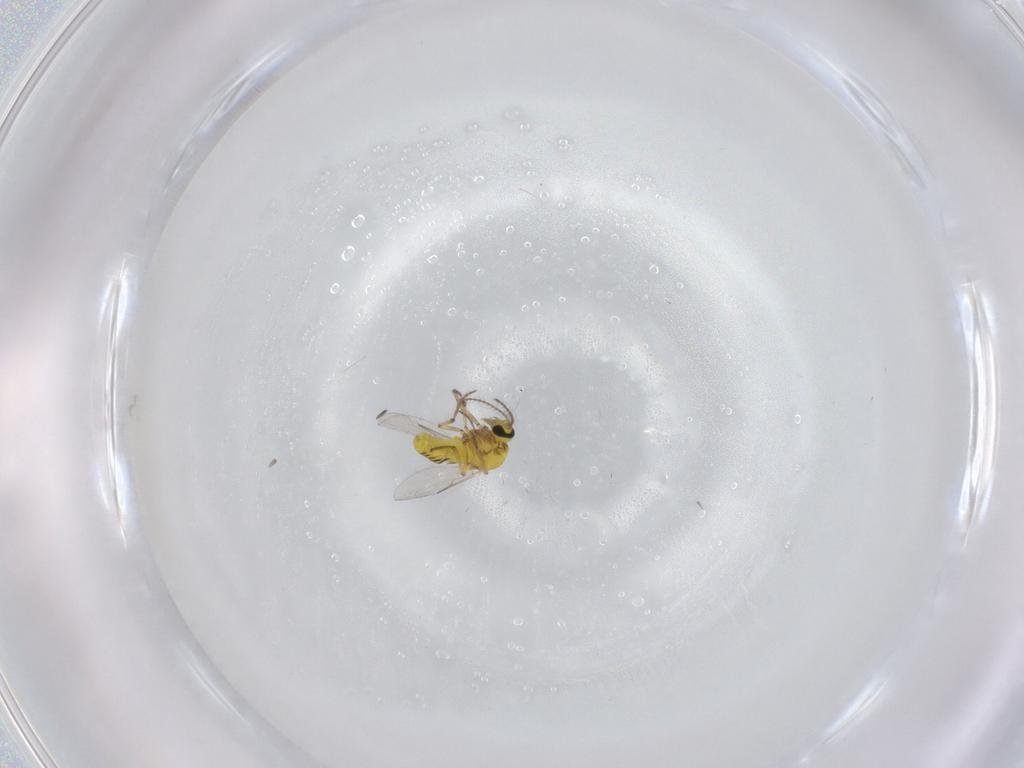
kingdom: Animalia
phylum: Arthropoda
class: Insecta
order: Diptera
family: Ceratopogonidae
